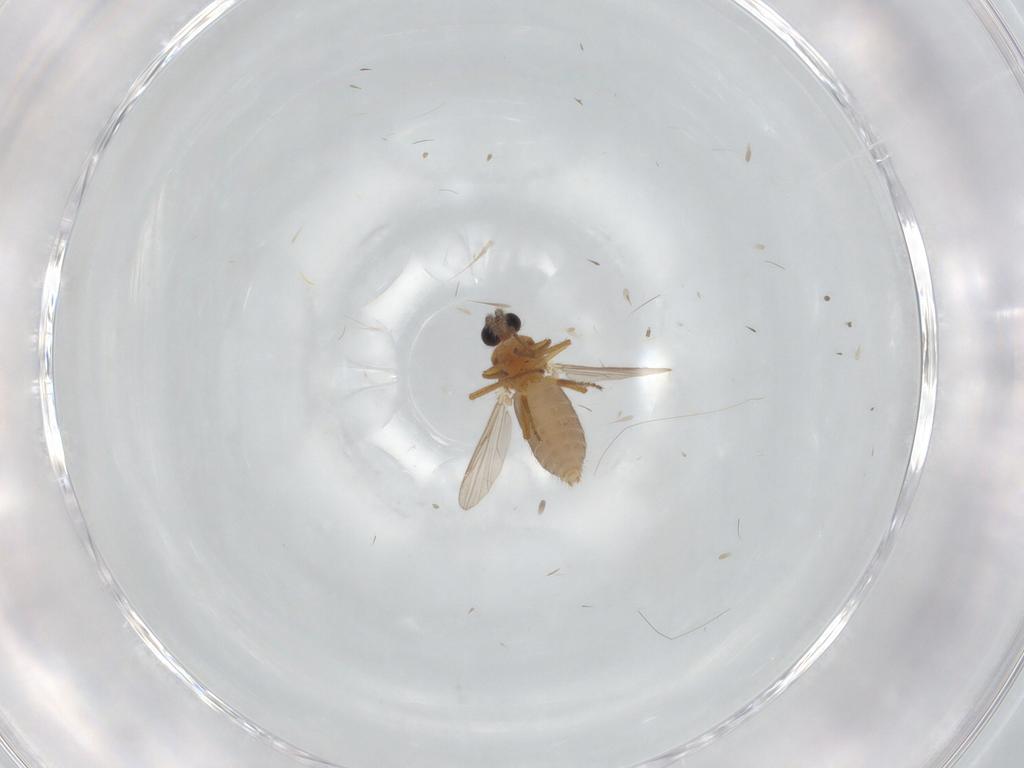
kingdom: Animalia
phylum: Arthropoda
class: Insecta
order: Diptera
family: Ceratopogonidae
